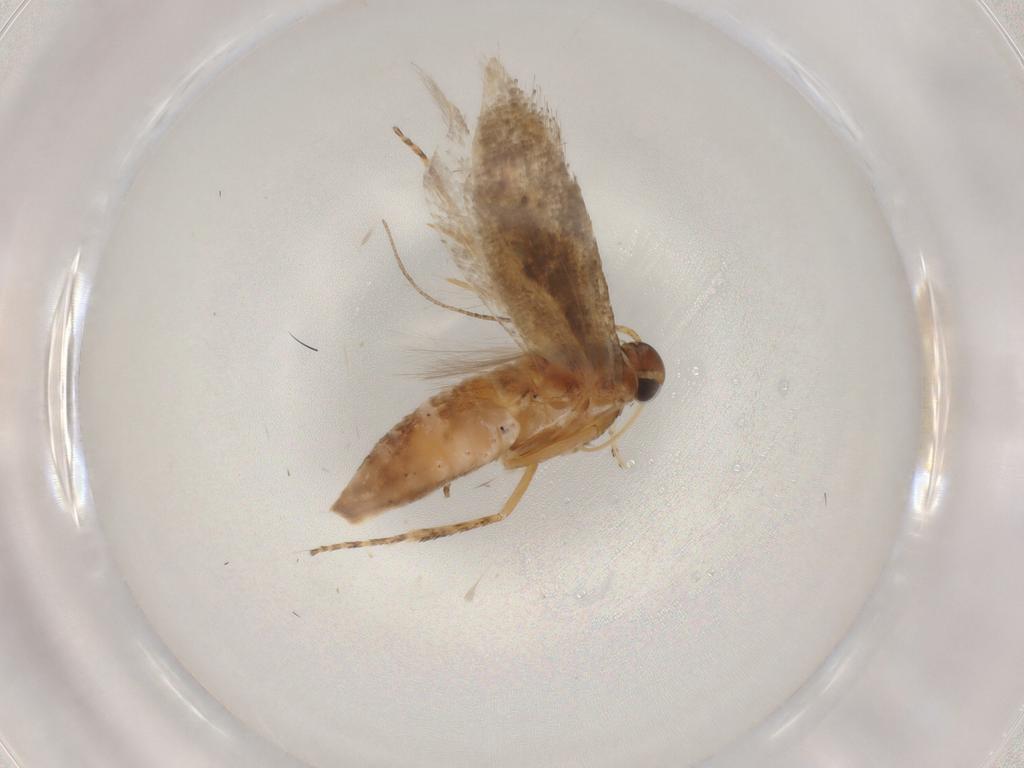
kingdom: Animalia
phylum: Arthropoda
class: Insecta
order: Lepidoptera
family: Gelechiidae
